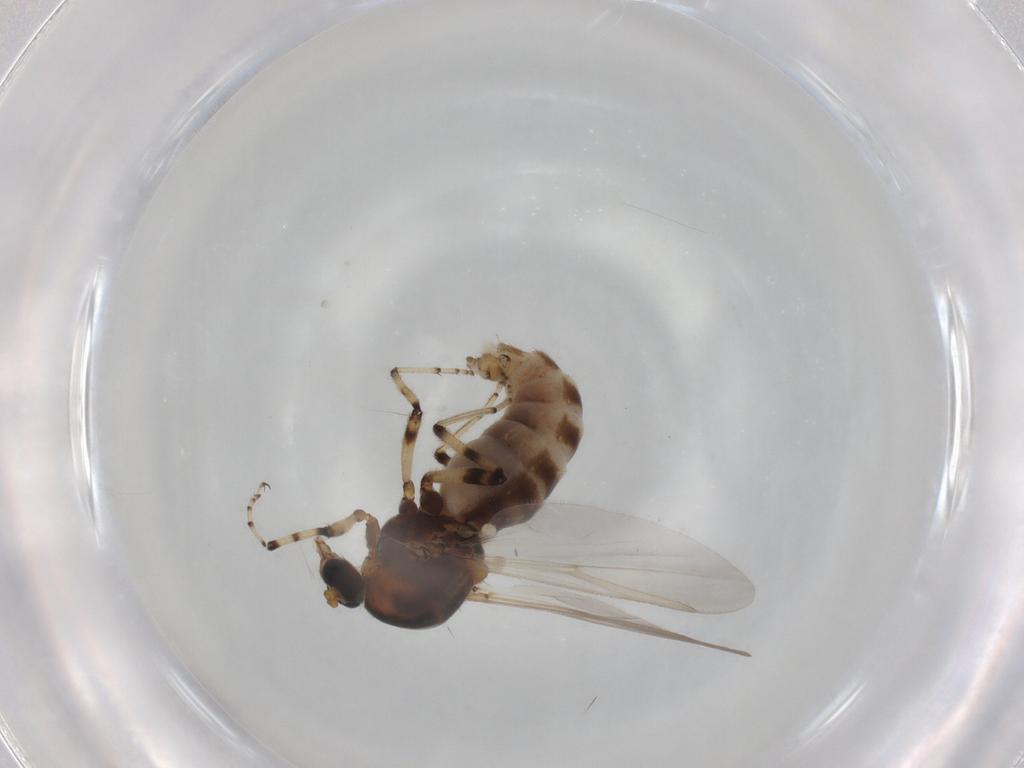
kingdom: Animalia
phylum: Arthropoda
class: Insecta
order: Diptera
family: Ceratopogonidae
